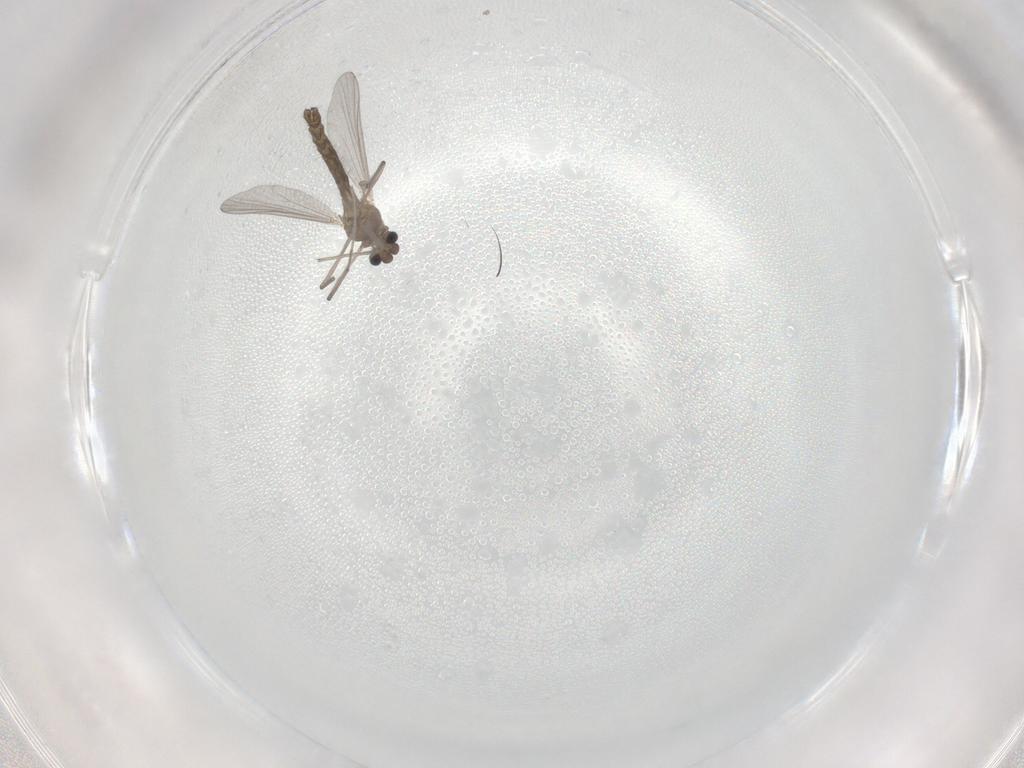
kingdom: Animalia
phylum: Arthropoda
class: Insecta
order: Diptera
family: Chironomidae
